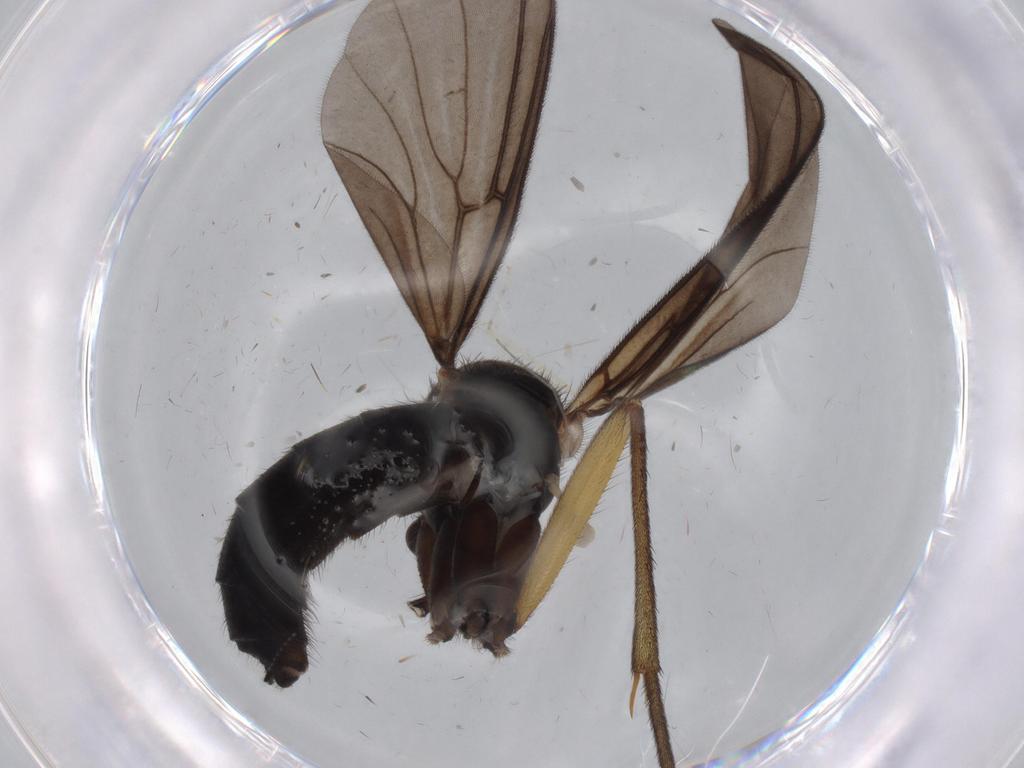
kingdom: Animalia
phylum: Arthropoda
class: Insecta
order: Diptera
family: Mycetophilidae
